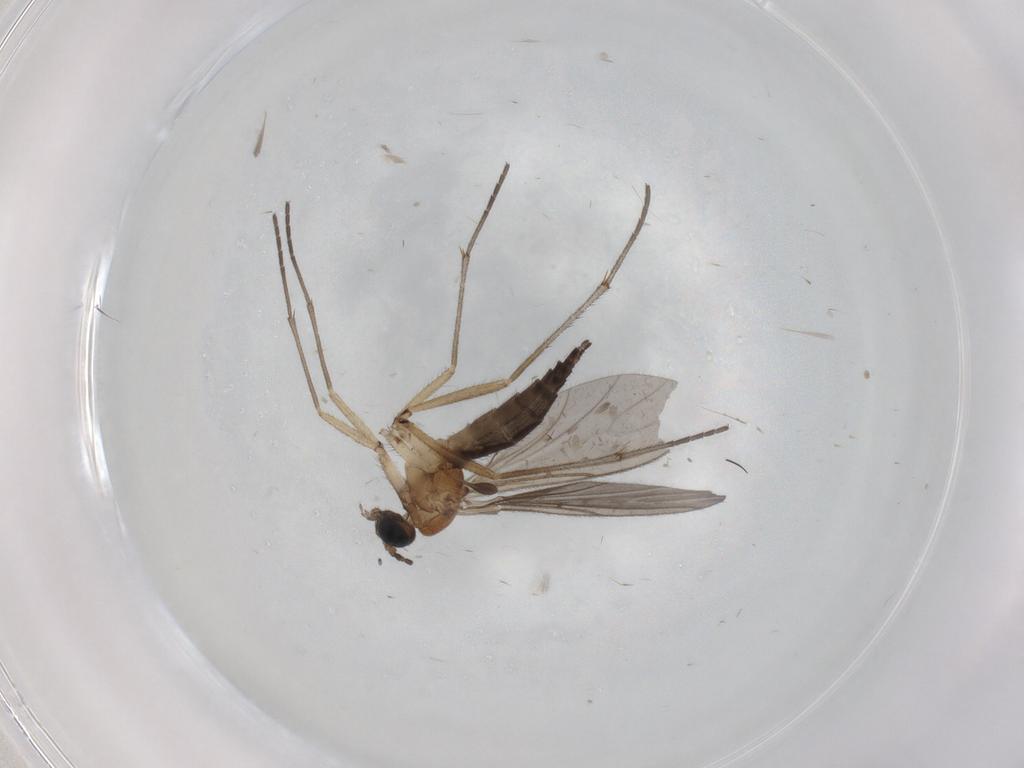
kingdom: Animalia
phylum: Arthropoda
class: Insecta
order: Diptera
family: Sciaridae
